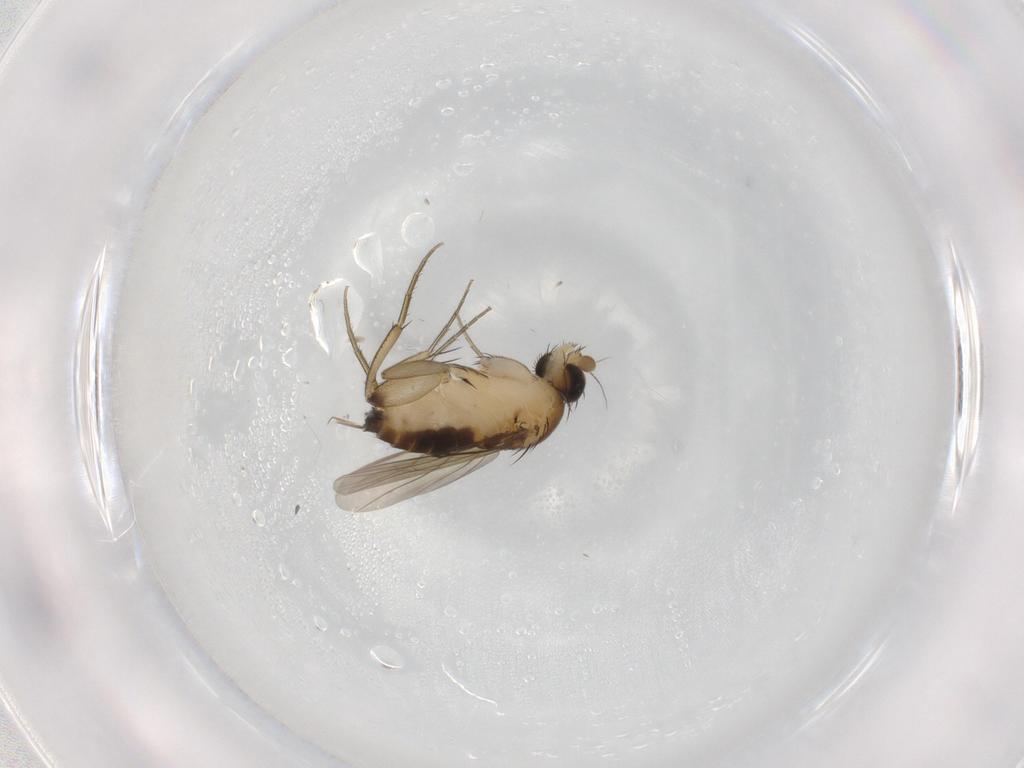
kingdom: Animalia
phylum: Arthropoda
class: Insecta
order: Diptera
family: Phoridae
